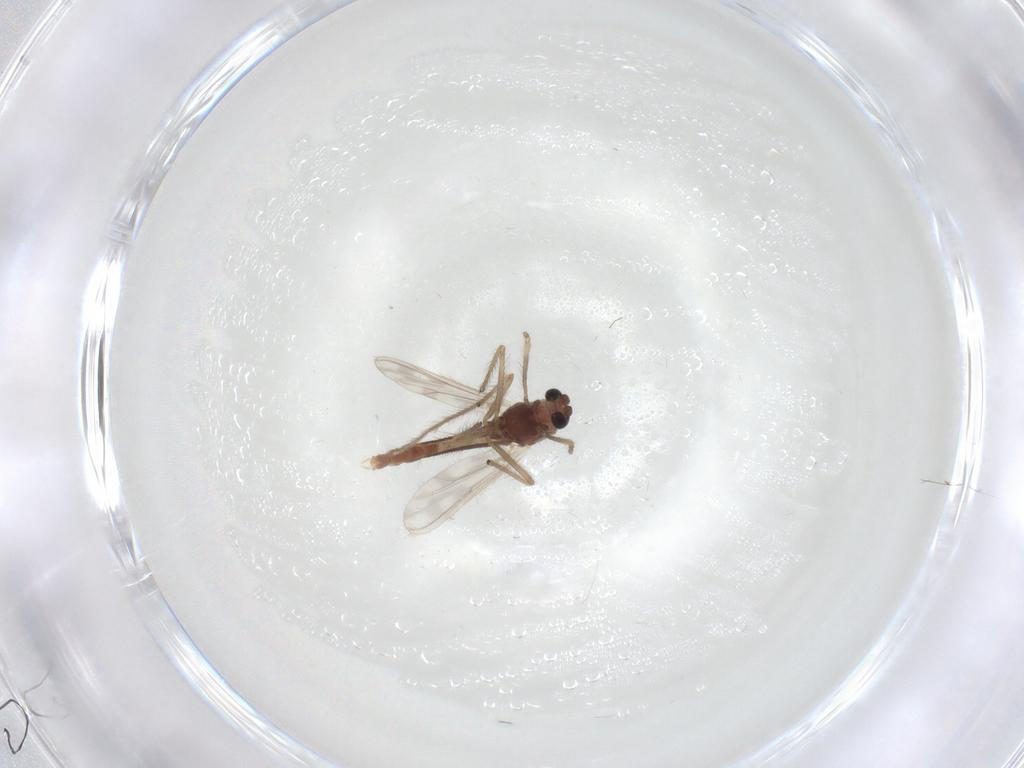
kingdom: Animalia
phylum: Arthropoda
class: Insecta
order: Diptera
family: Chironomidae
